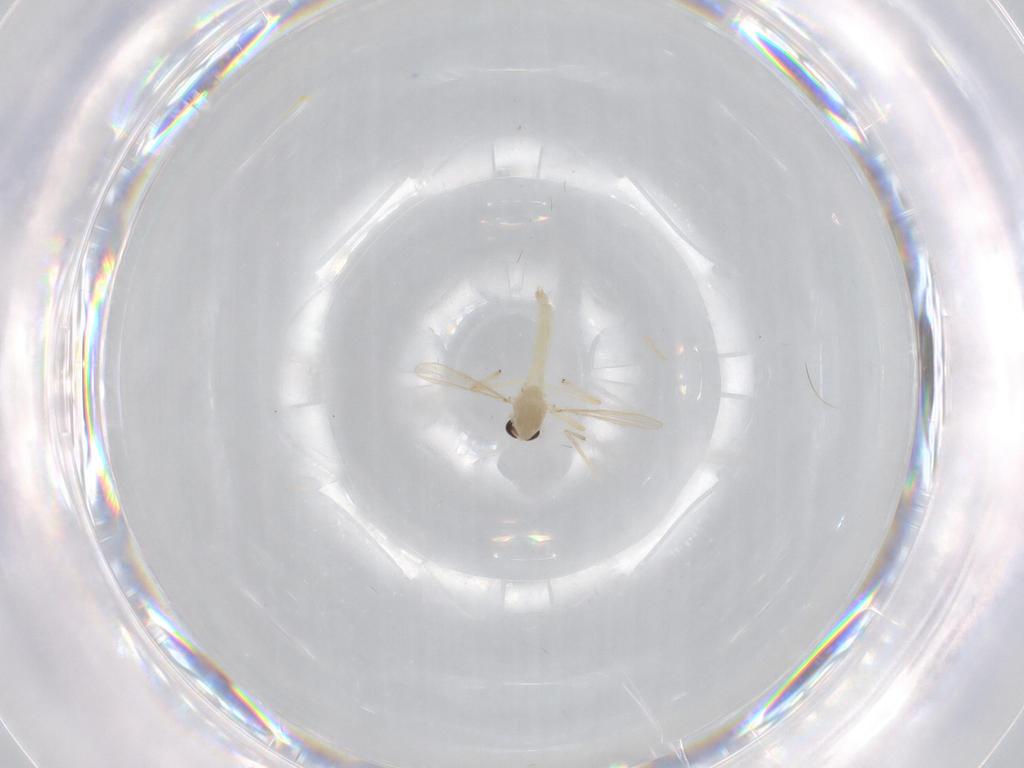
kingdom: Animalia
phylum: Arthropoda
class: Insecta
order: Diptera
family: Chironomidae
